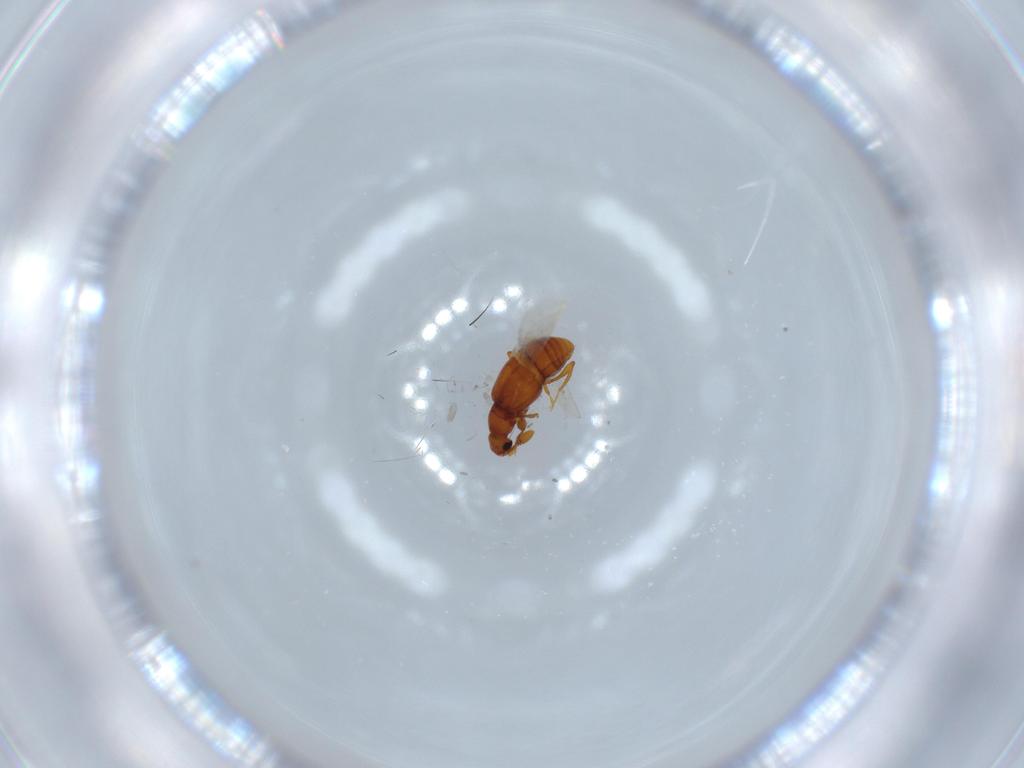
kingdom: Animalia
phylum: Arthropoda
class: Insecta
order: Coleoptera
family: Staphylinidae
